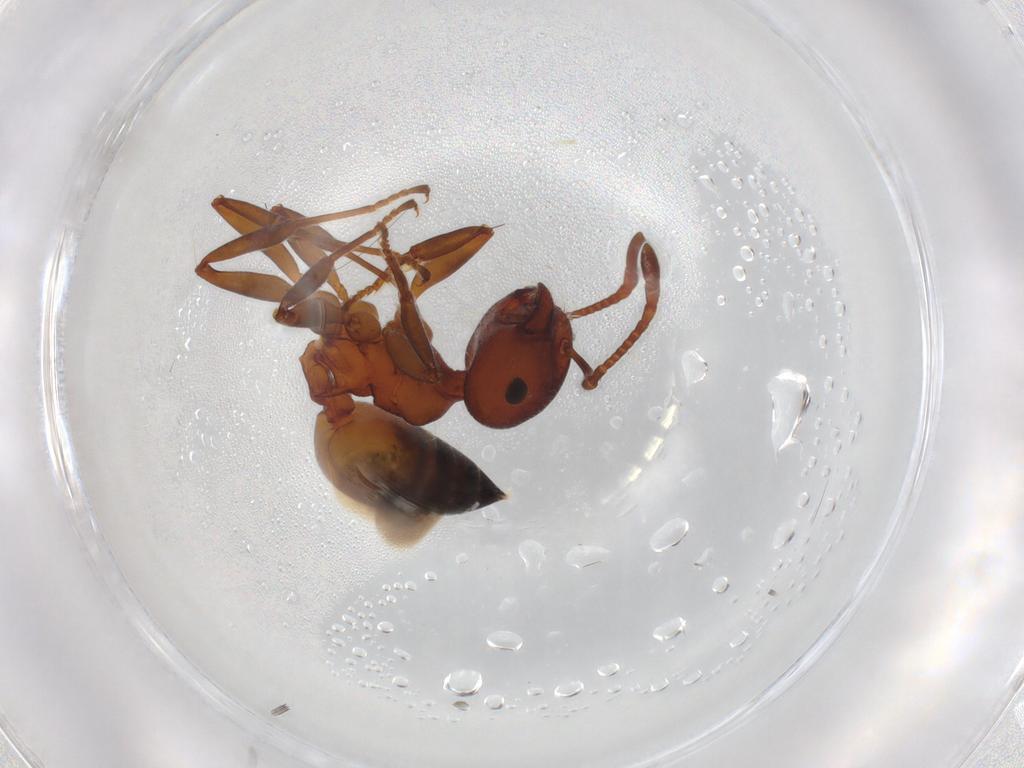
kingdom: Animalia
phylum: Arthropoda
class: Insecta
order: Hymenoptera
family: Formicidae
